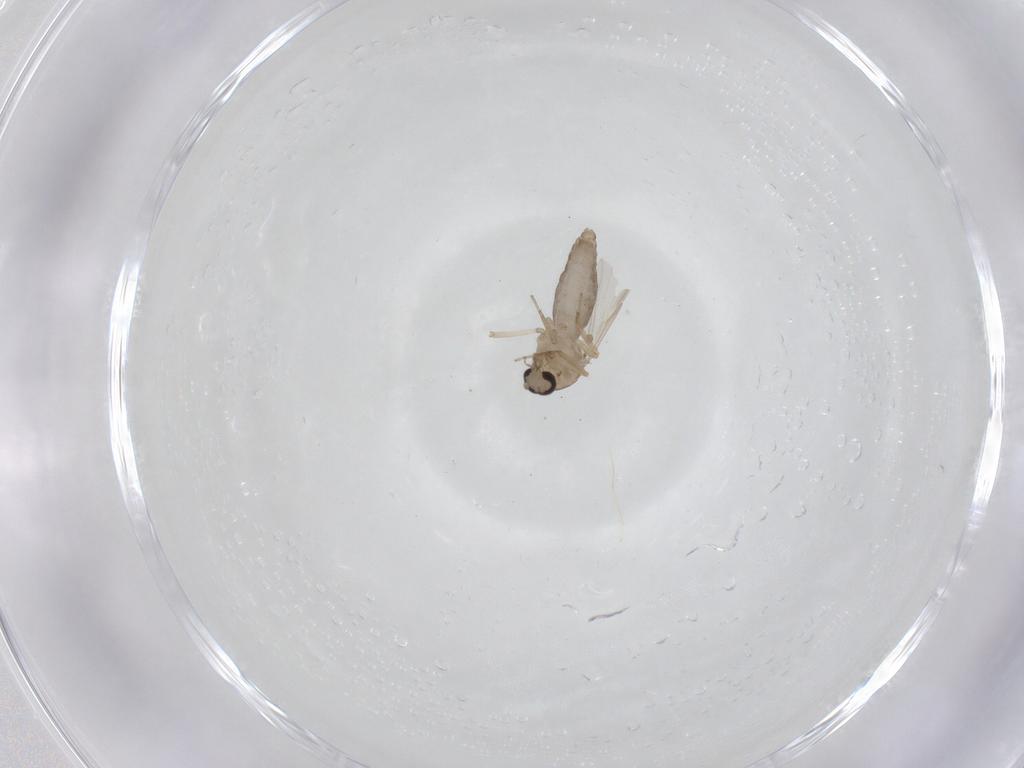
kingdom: Animalia
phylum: Arthropoda
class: Insecta
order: Diptera
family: Ceratopogonidae
